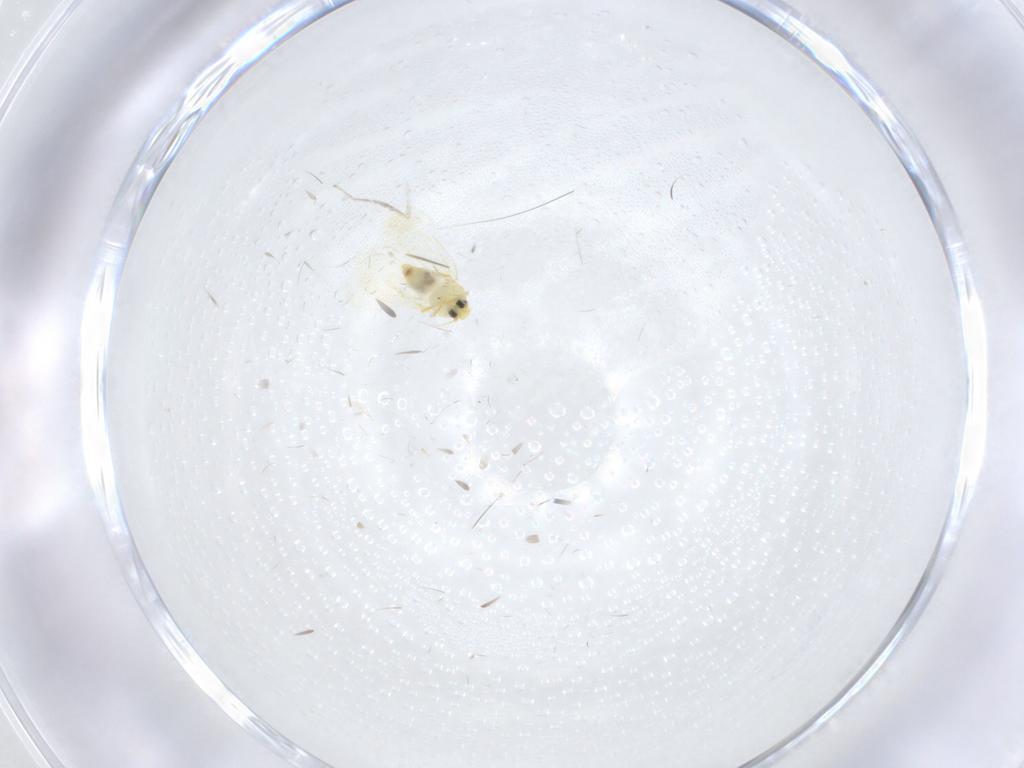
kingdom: Animalia
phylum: Arthropoda
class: Insecta
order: Hemiptera
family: Aleyrodidae
